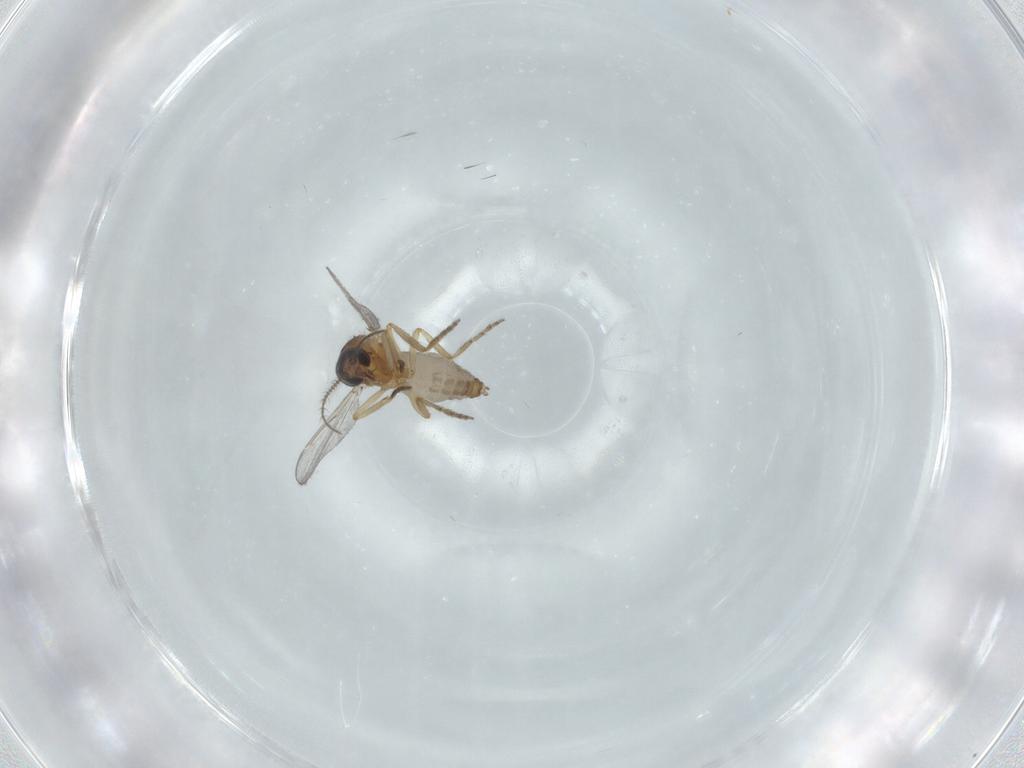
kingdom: Animalia
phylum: Arthropoda
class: Insecta
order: Diptera
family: Ceratopogonidae
